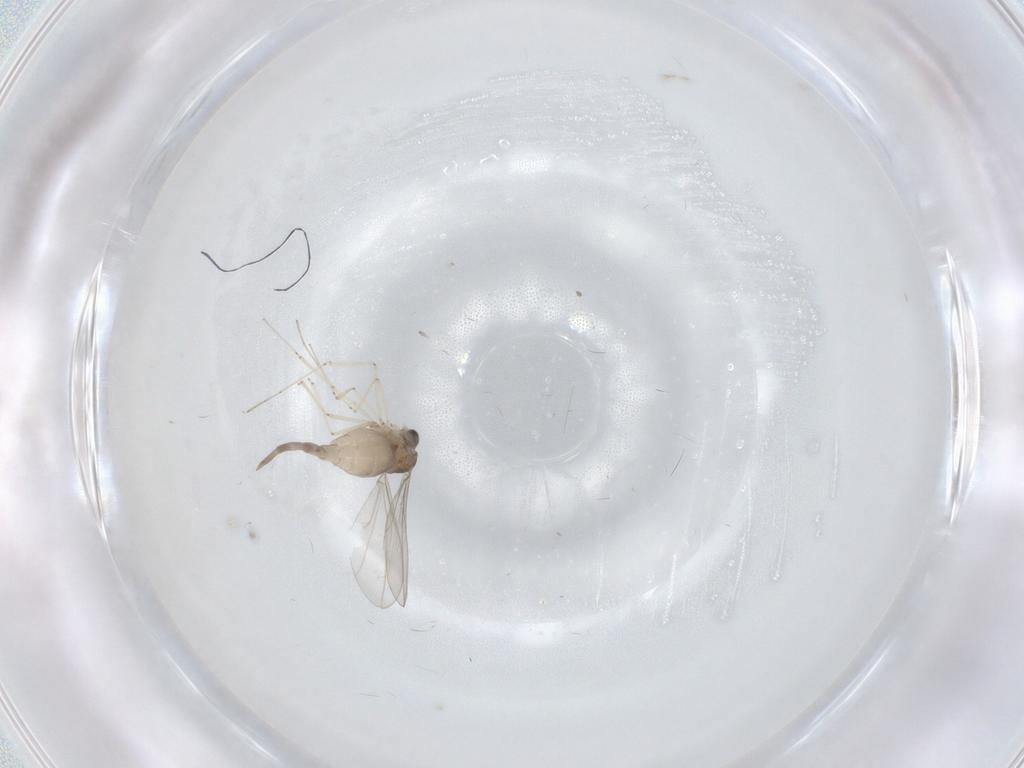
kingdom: Animalia
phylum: Arthropoda
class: Insecta
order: Diptera
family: Cecidomyiidae
